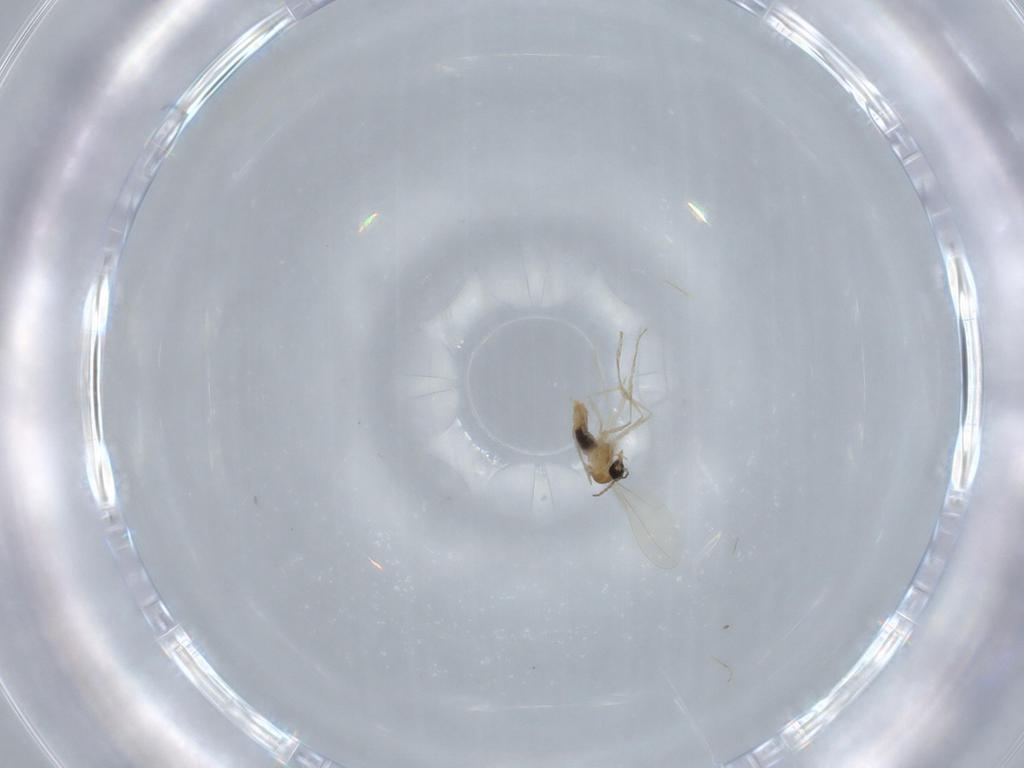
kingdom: Animalia
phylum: Arthropoda
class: Insecta
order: Diptera
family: Cecidomyiidae
